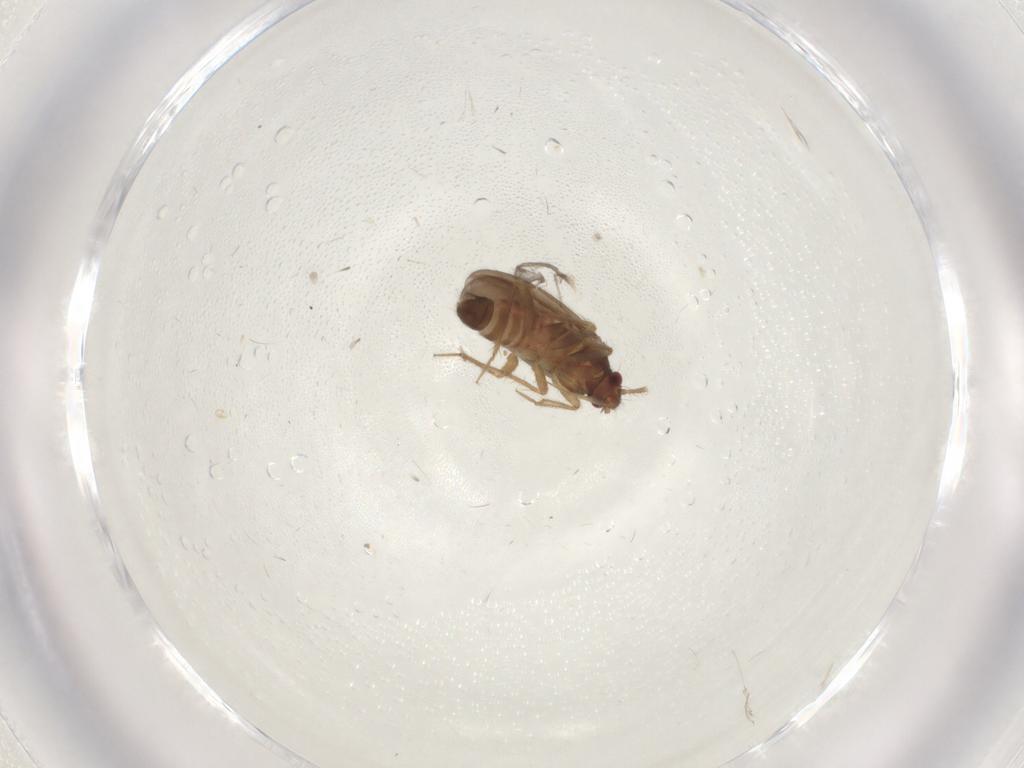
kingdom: Animalia
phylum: Arthropoda
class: Insecta
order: Hemiptera
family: Ceratocombidae
